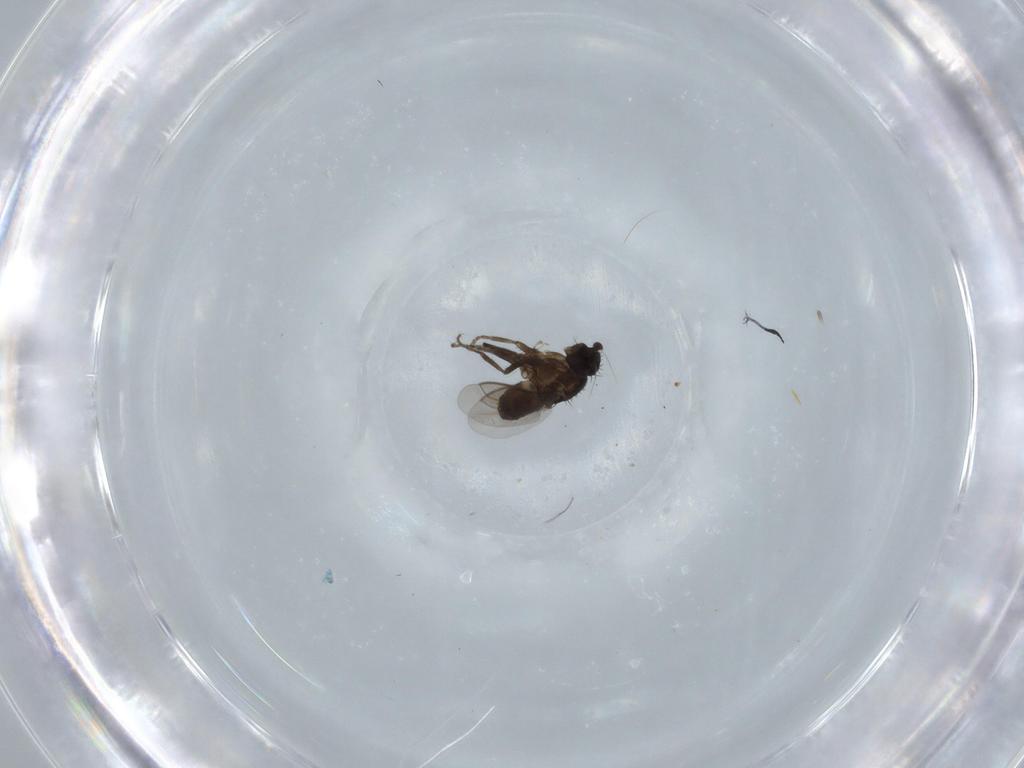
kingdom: Animalia
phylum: Arthropoda
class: Insecta
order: Diptera
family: Sphaeroceridae
